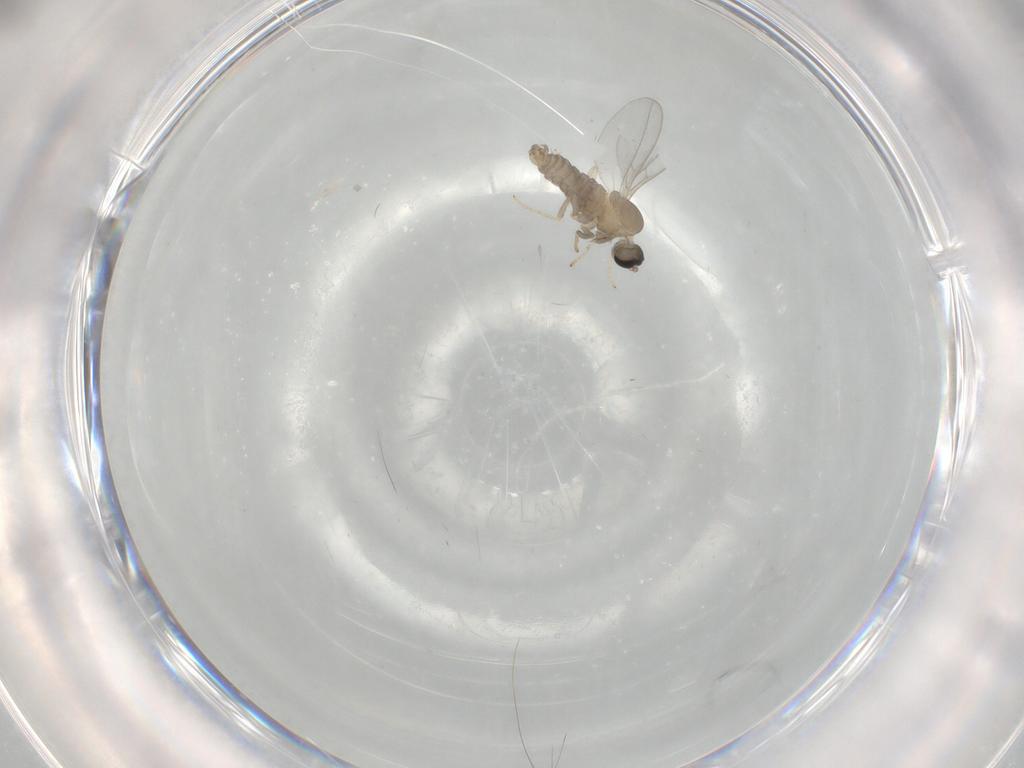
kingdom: Animalia
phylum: Arthropoda
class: Insecta
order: Diptera
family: Cecidomyiidae
